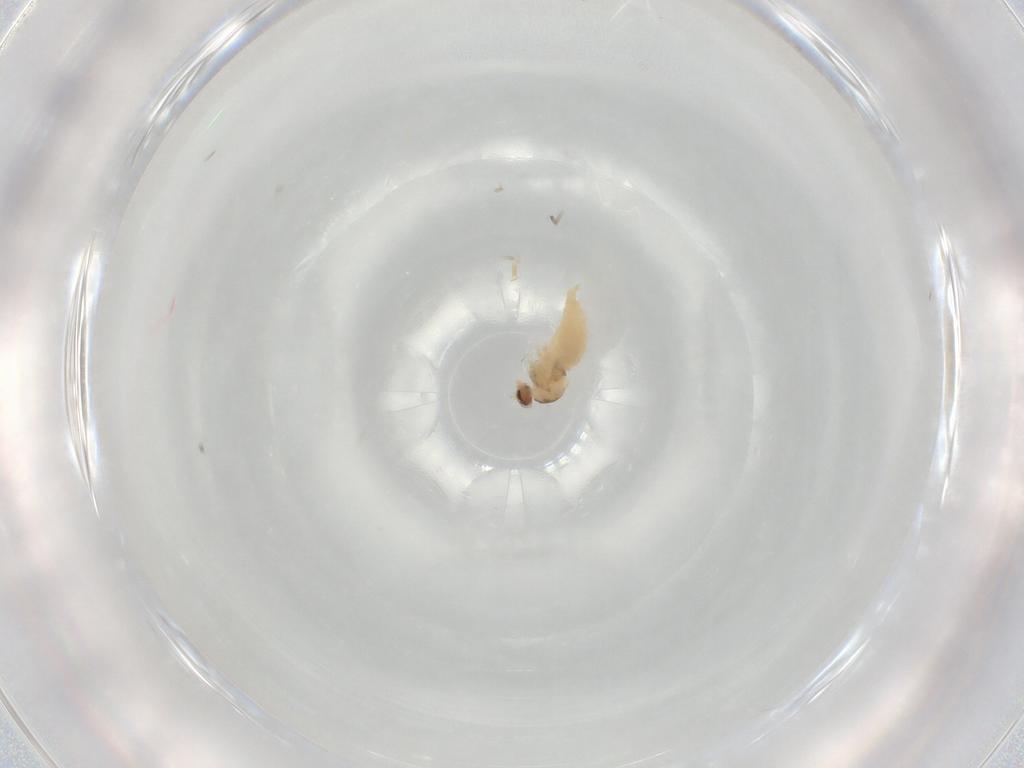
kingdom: Animalia
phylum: Arthropoda
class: Insecta
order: Diptera
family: Cecidomyiidae
